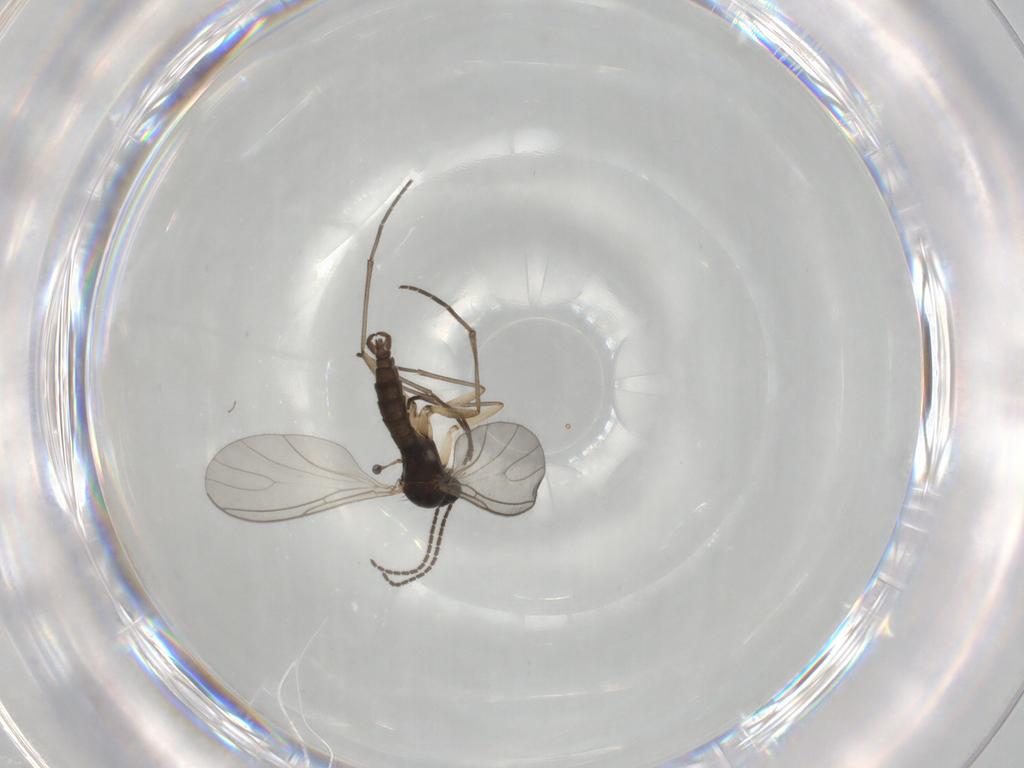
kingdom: Animalia
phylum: Arthropoda
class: Insecta
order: Diptera
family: Sciaridae
